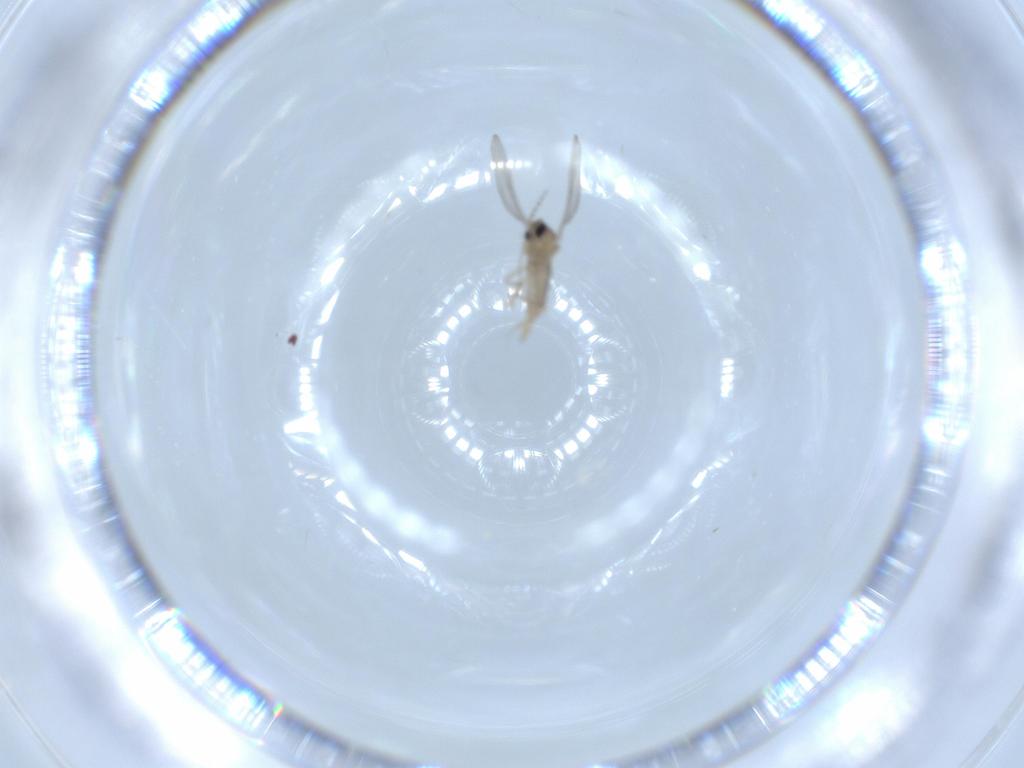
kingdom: Animalia
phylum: Arthropoda
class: Insecta
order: Diptera
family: Cecidomyiidae
